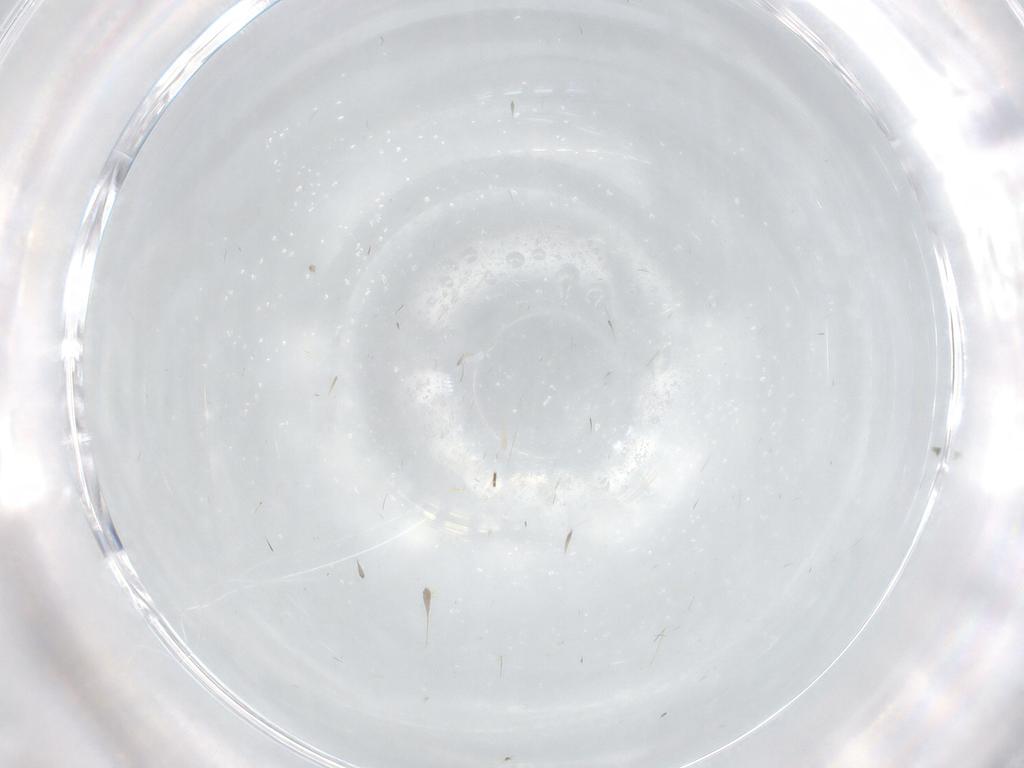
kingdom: Animalia
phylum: Arthropoda
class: Insecta
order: Diptera
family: Cecidomyiidae
